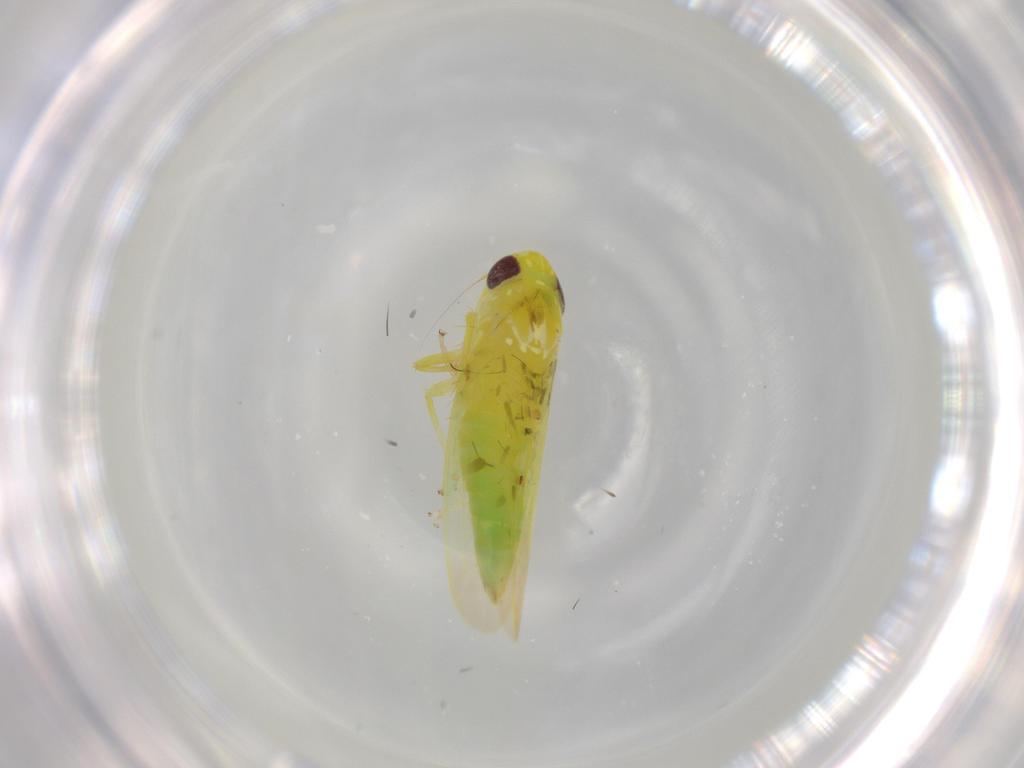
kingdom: Animalia
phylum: Arthropoda
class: Insecta
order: Hemiptera
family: Cicadellidae
